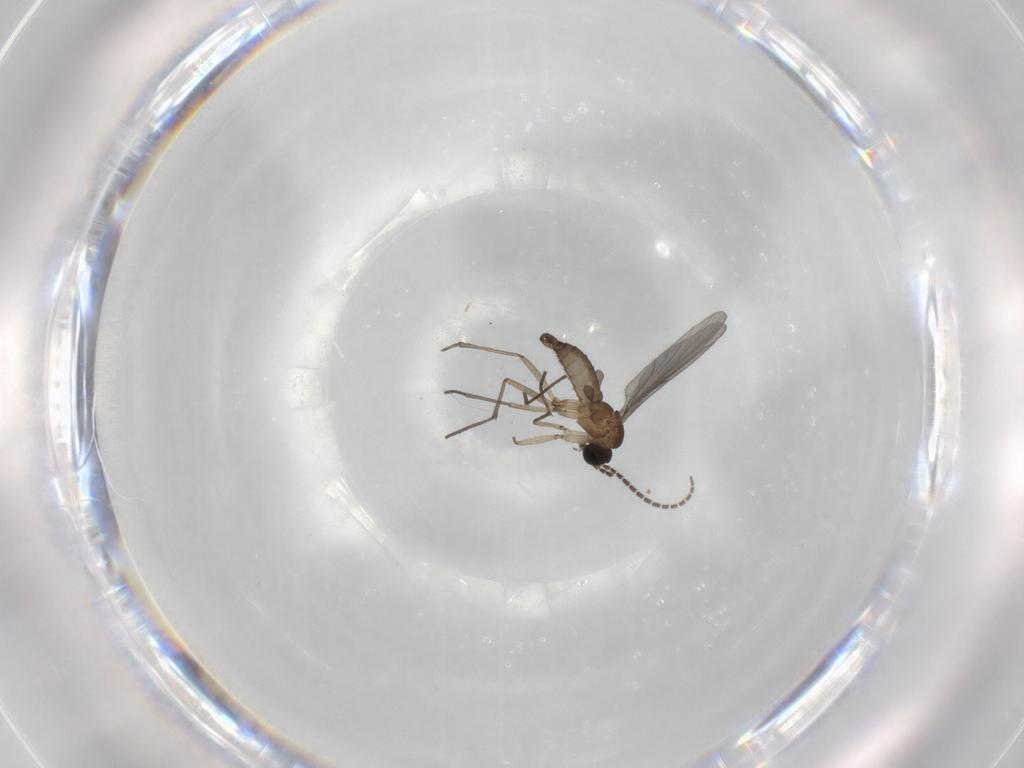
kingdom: Animalia
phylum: Arthropoda
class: Insecta
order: Diptera
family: Sciaridae
